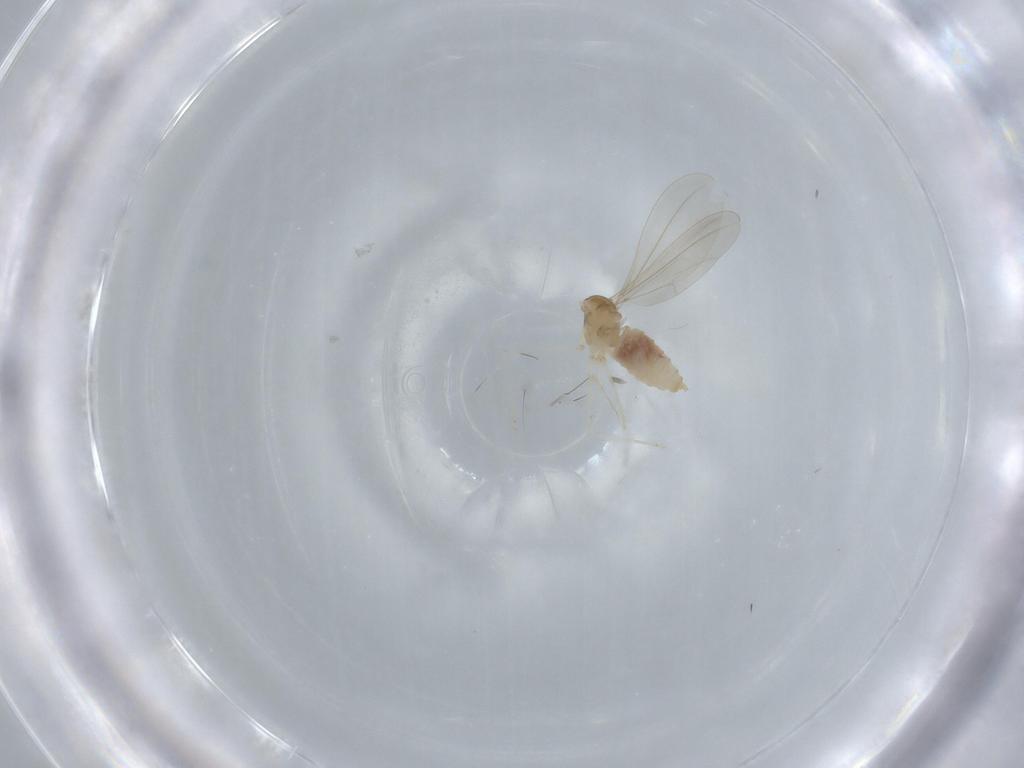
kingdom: Animalia
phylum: Arthropoda
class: Insecta
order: Diptera
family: Cecidomyiidae
